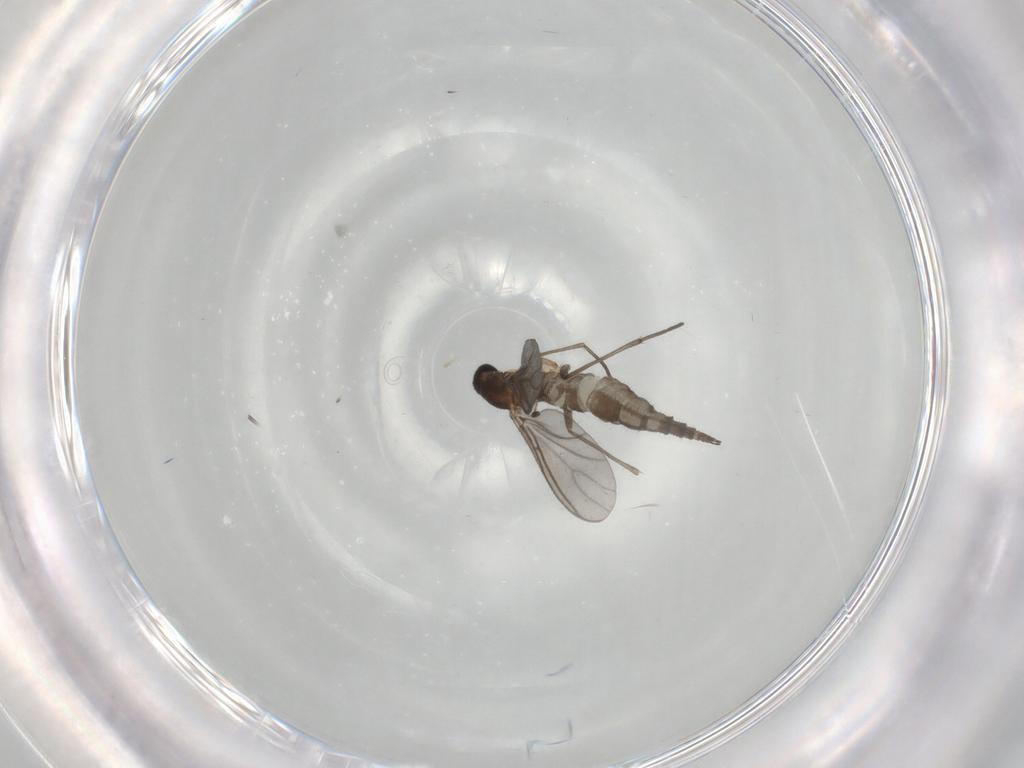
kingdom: Animalia
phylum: Arthropoda
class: Insecta
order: Diptera
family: Sciaridae
